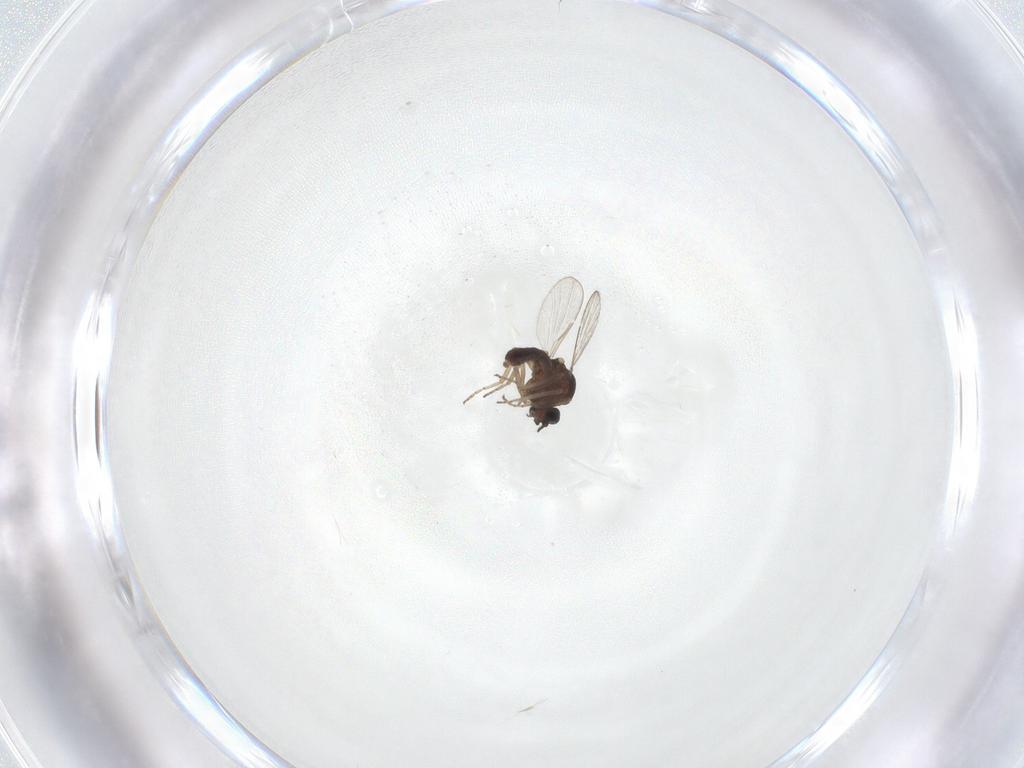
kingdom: Animalia
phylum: Arthropoda
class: Insecta
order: Diptera
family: Ceratopogonidae
